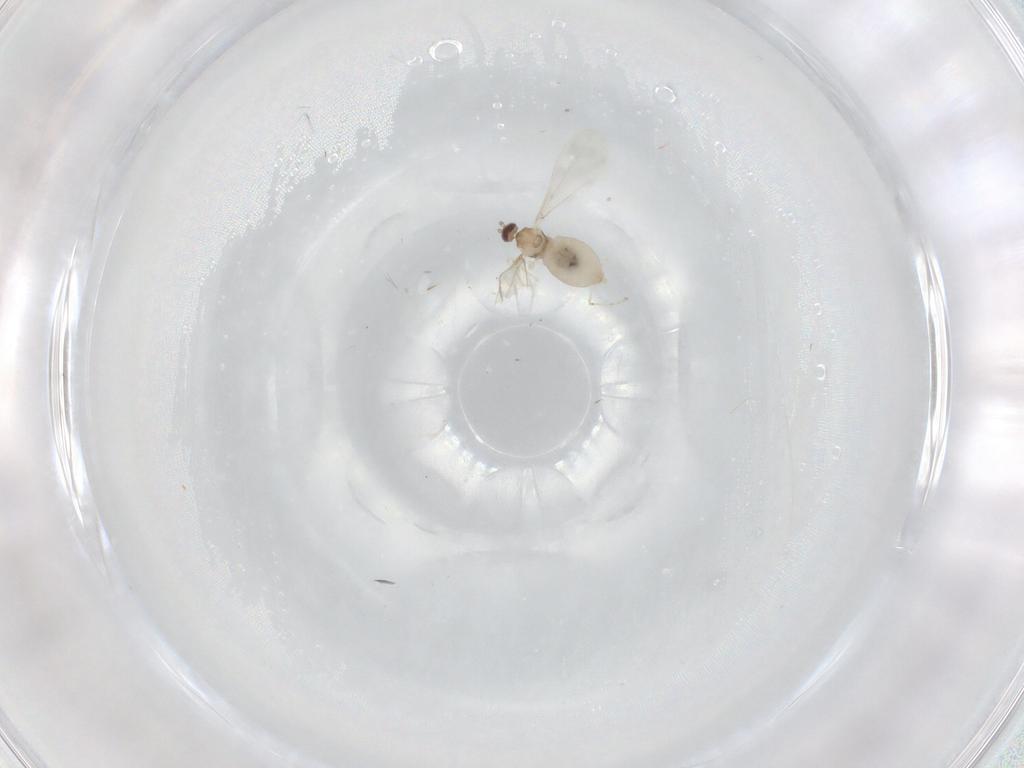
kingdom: Animalia
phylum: Arthropoda
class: Insecta
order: Diptera
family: Cecidomyiidae
